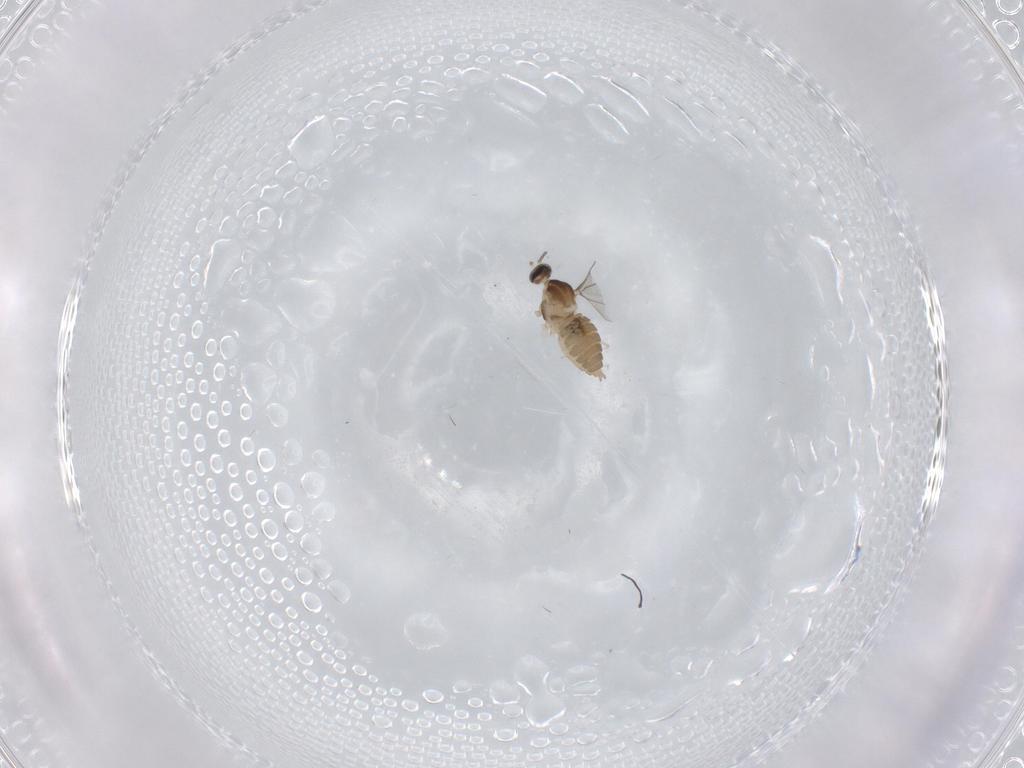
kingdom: Animalia
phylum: Arthropoda
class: Insecta
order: Diptera
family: Cecidomyiidae
